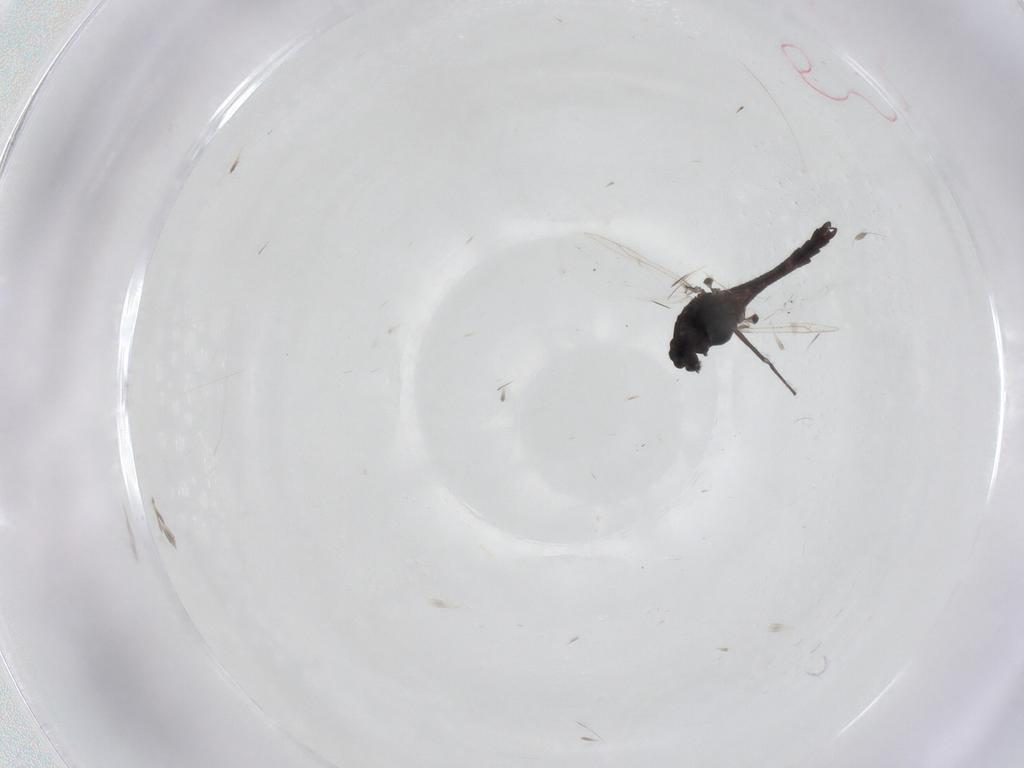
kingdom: Animalia
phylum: Arthropoda
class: Insecta
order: Diptera
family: Chironomidae
